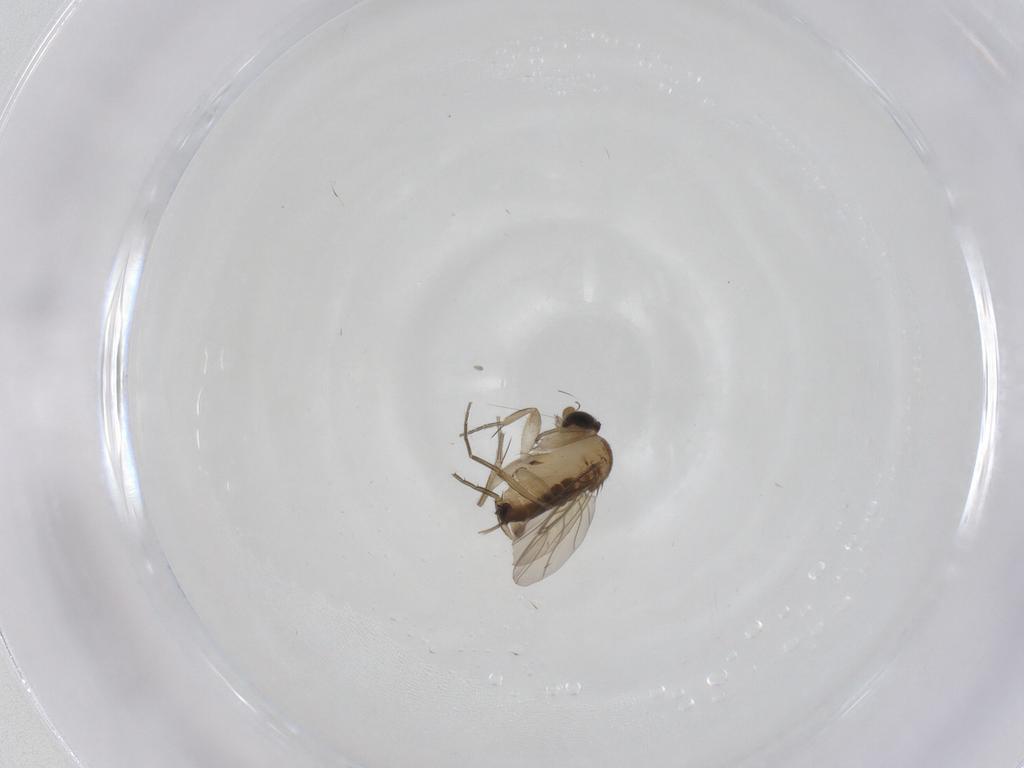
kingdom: Animalia
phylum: Arthropoda
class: Insecta
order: Diptera
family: Phoridae
